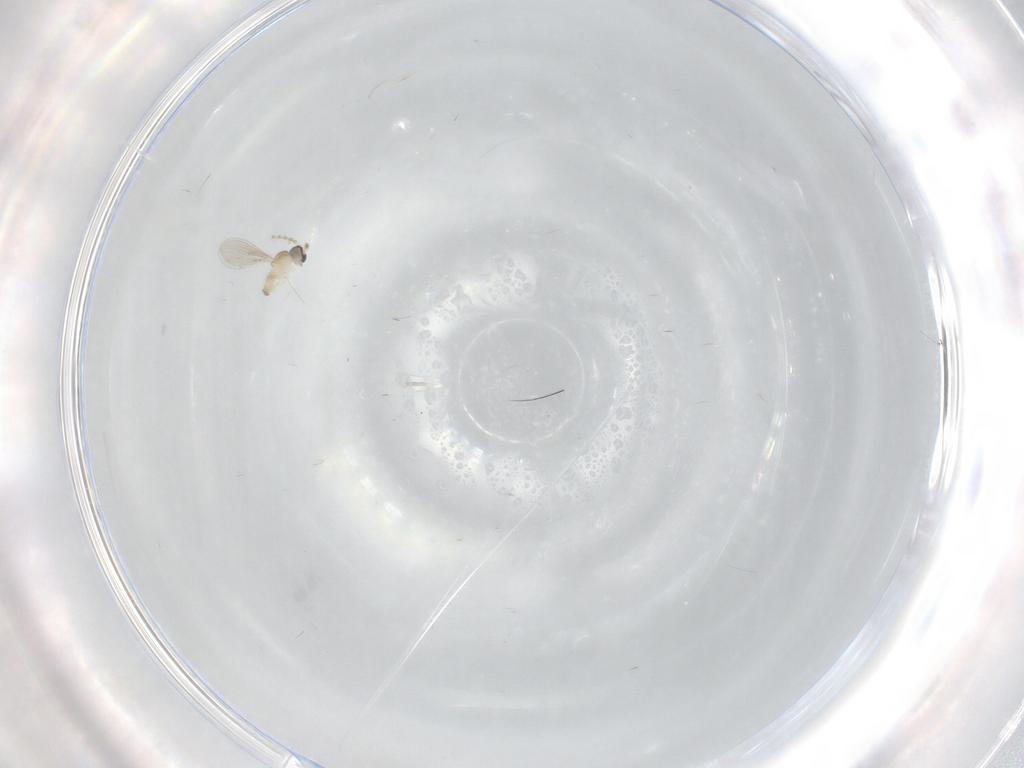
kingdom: Animalia
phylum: Arthropoda
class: Insecta
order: Diptera
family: Cecidomyiidae
